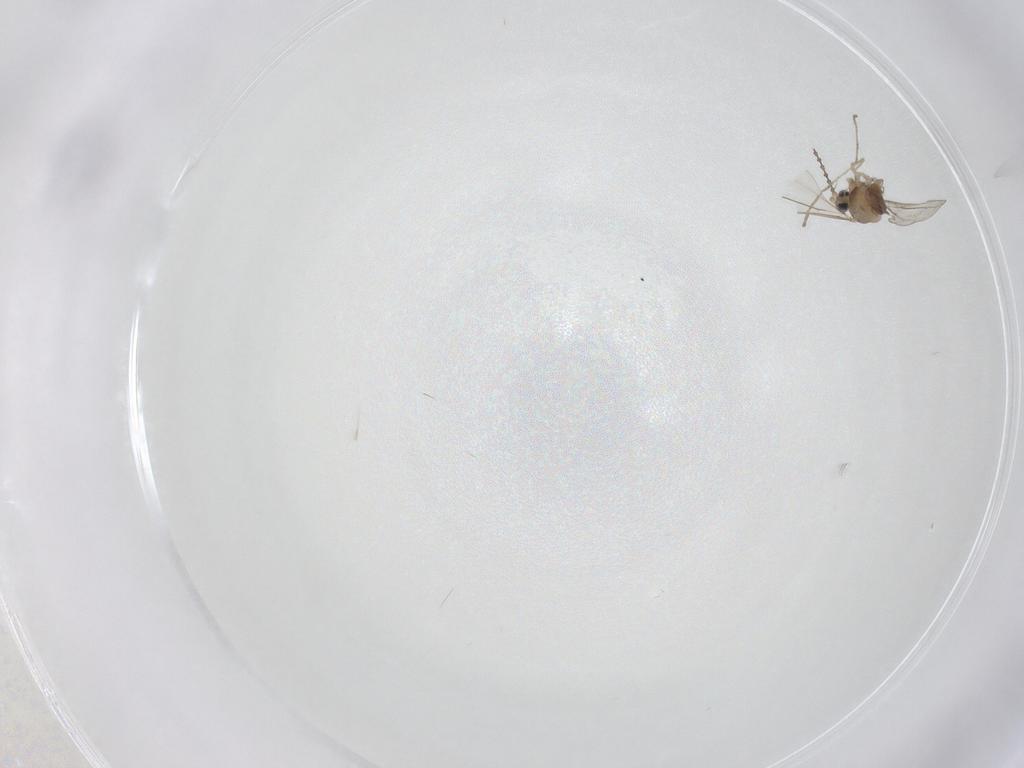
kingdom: Animalia
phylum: Arthropoda
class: Insecta
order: Diptera
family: Cecidomyiidae
